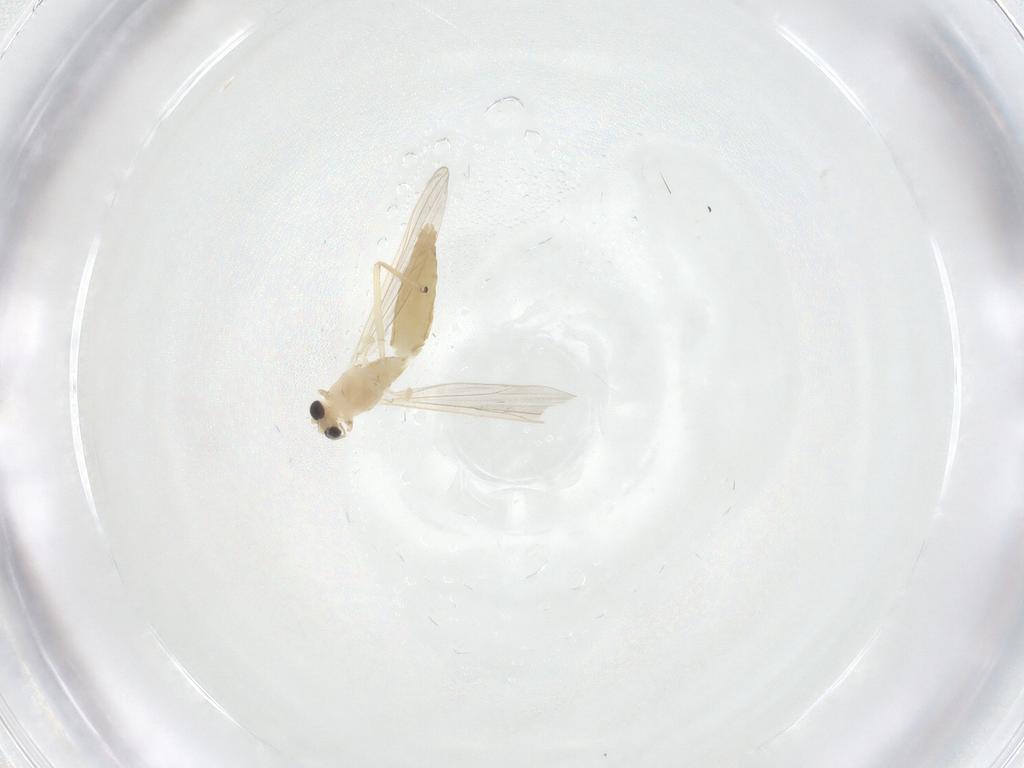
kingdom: Animalia
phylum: Arthropoda
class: Insecta
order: Diptera
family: Chironomidae
